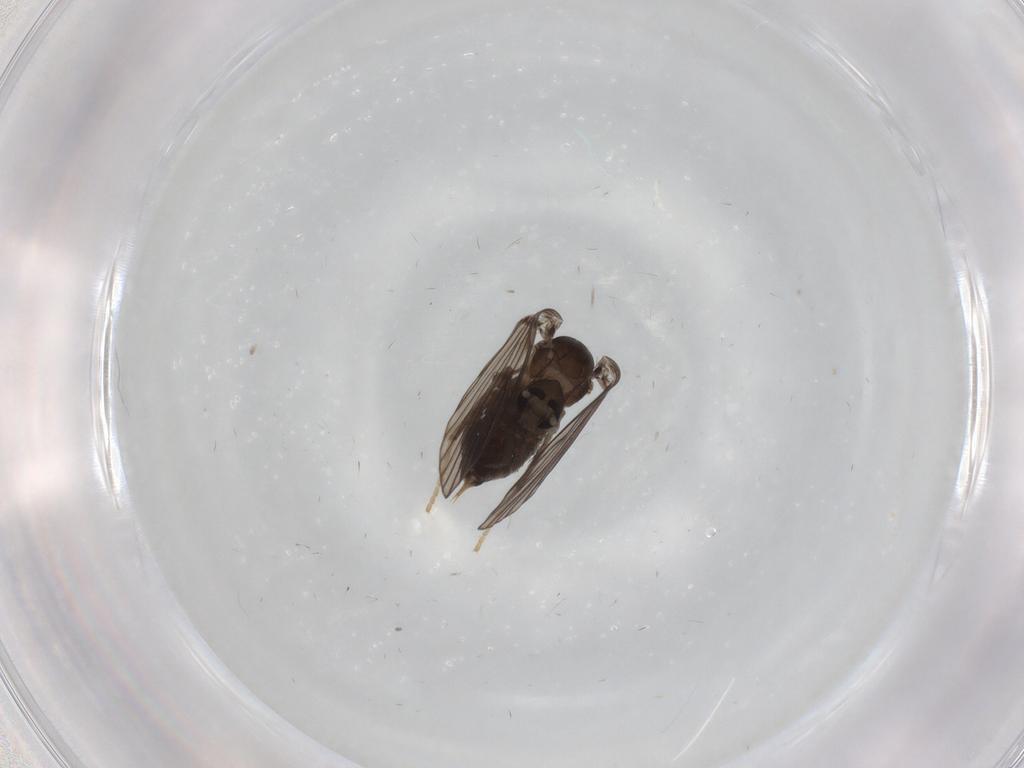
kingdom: Animalia
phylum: Arthropoda
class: Insecta
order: Diptera
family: Psychodidae
